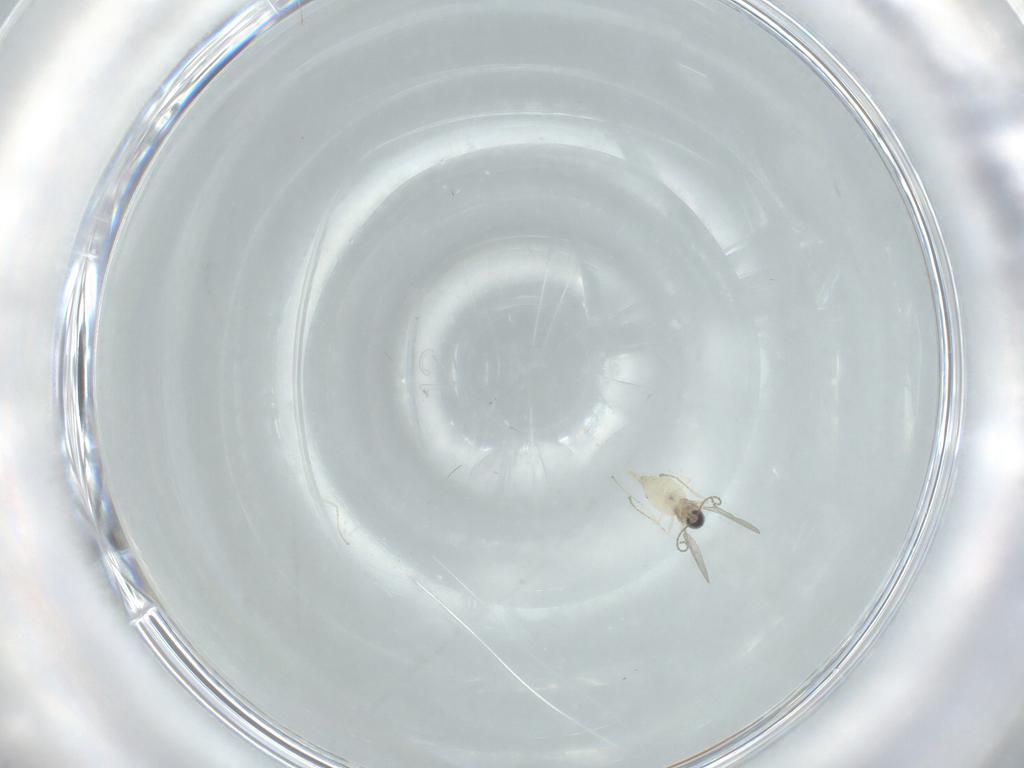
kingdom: Animalia
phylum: Arthropoda
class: Insecta
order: Diptera
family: Cecidomyiidae
